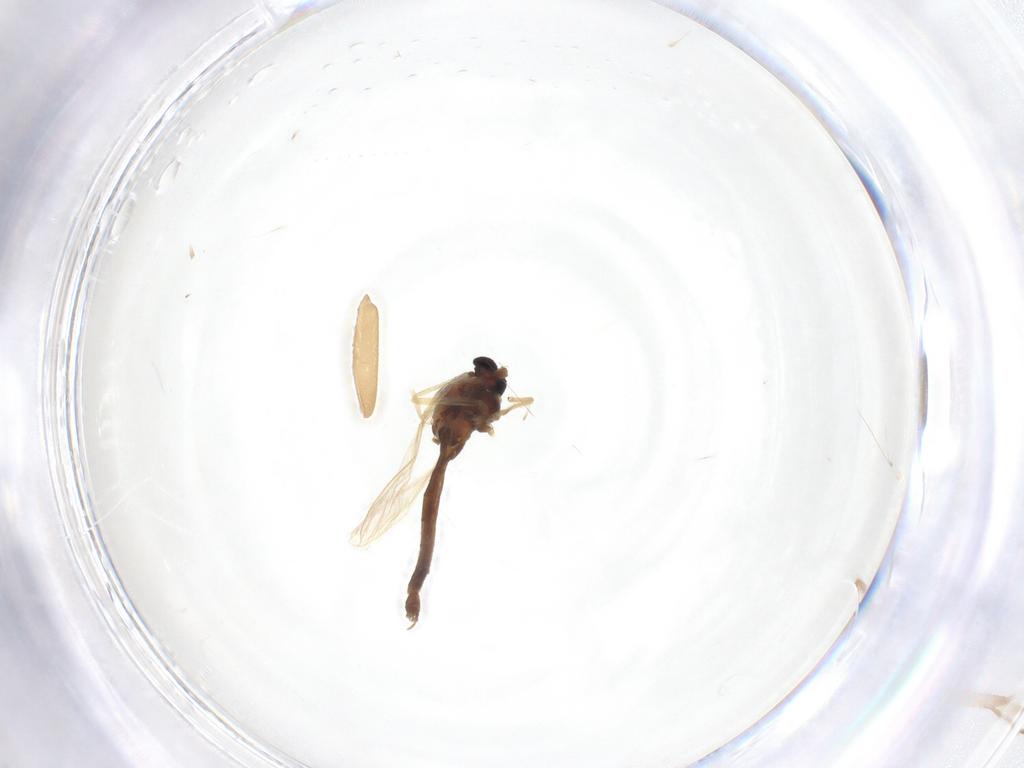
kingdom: Animalia
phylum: Arthropoda
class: Insecta
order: Diptera
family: Chironomidae
